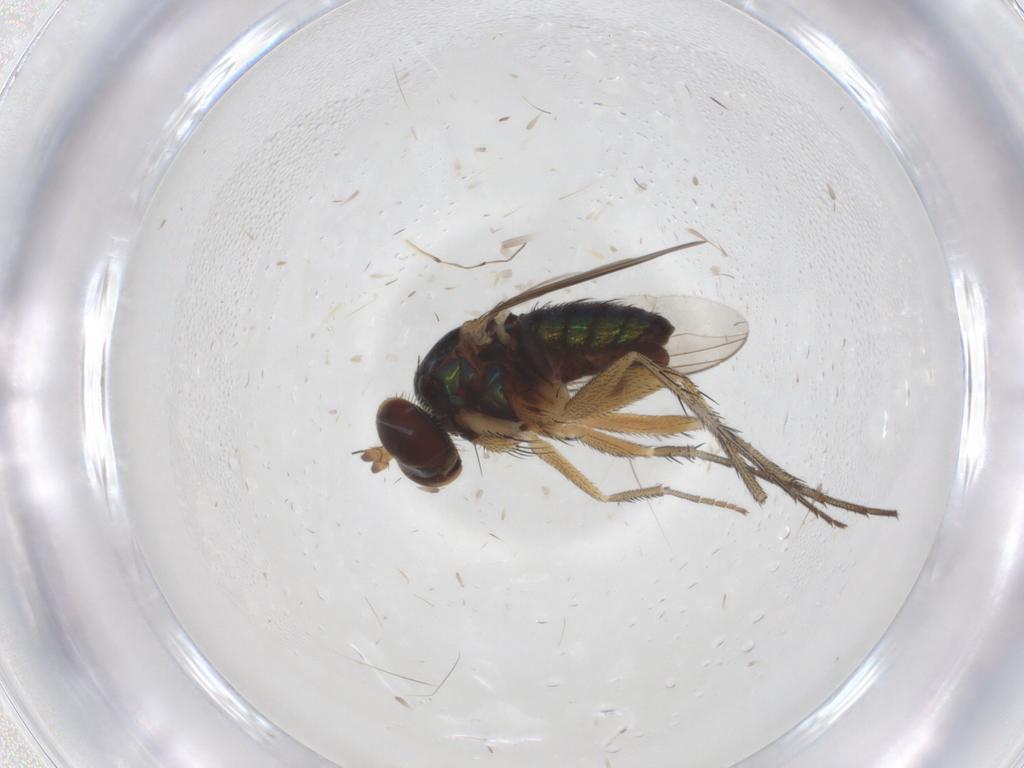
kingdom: Animalia
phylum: Arthropoda
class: Insecta
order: Diptera
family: Dolichopodidae
